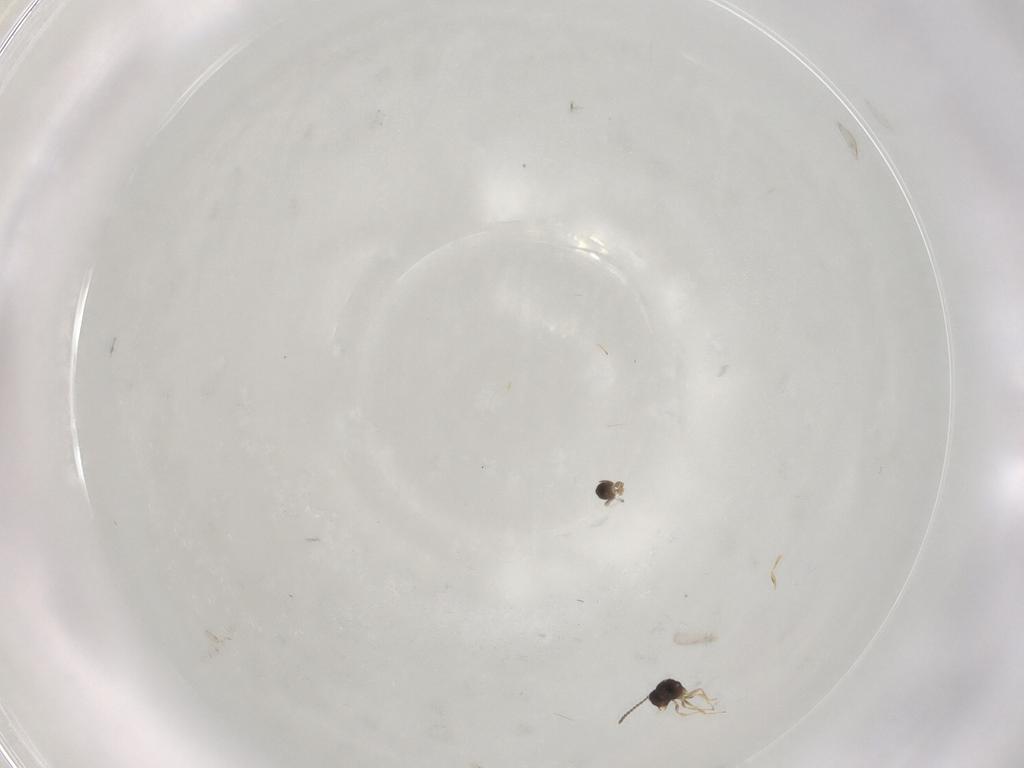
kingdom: Animalia
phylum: Arthropoda
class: Insecta
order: Hymenoptera
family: Scelionidae
